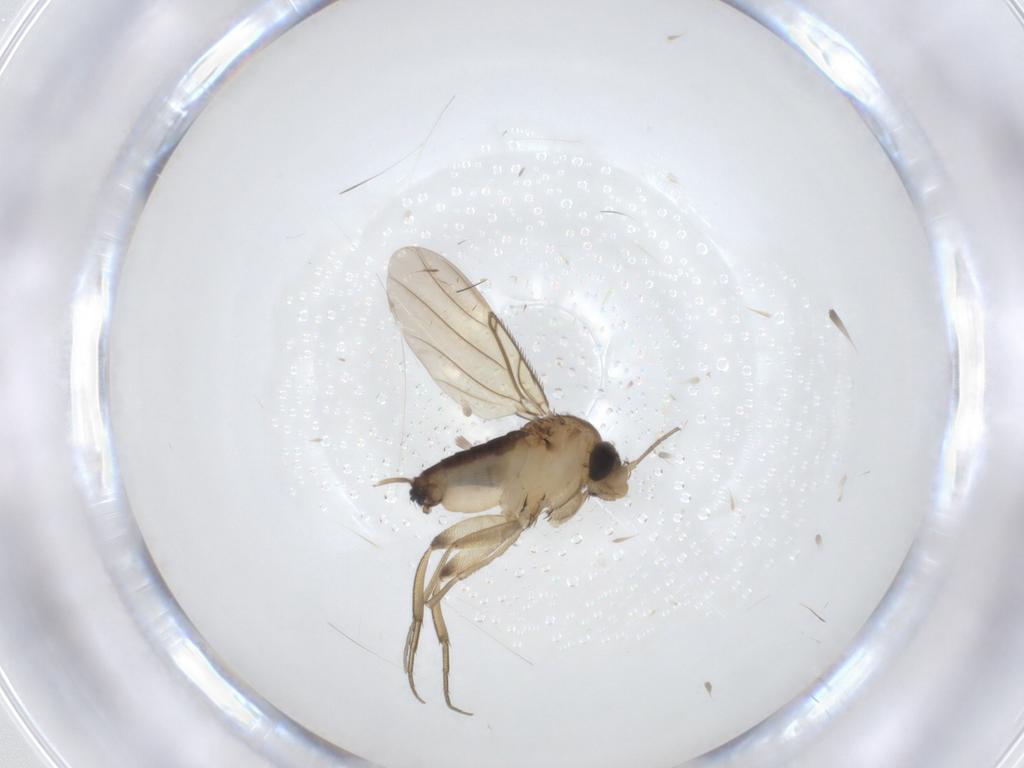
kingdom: Animalia
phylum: Arthropoda
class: Insecta
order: Diptera
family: Phoridae
